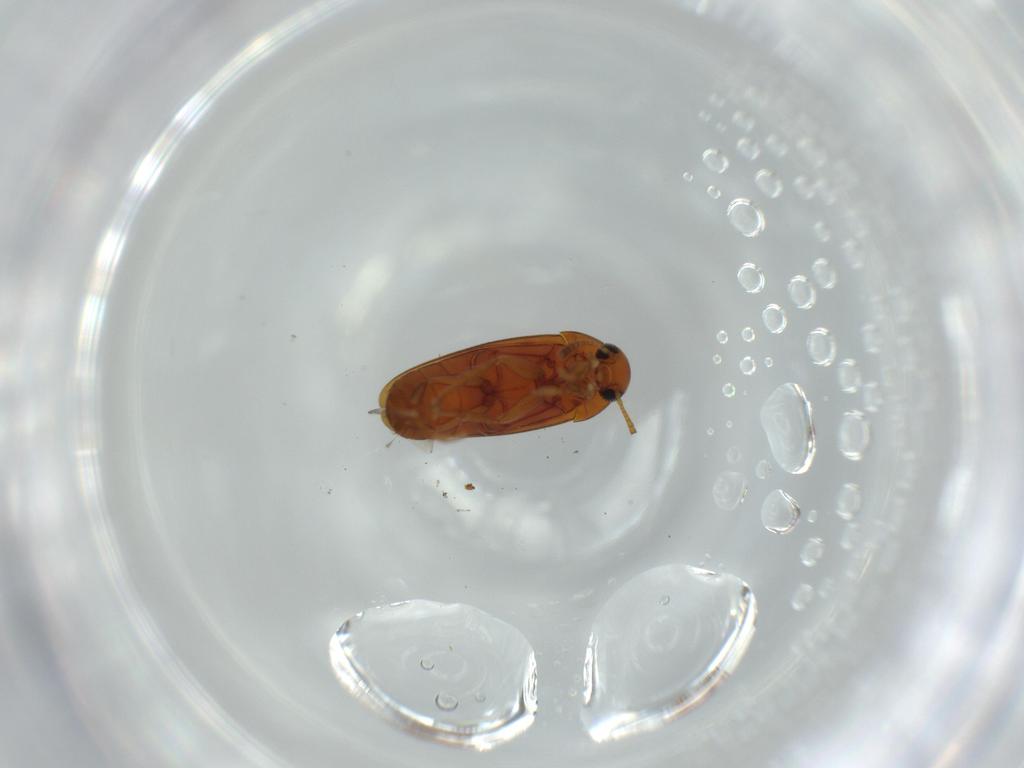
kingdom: Animalia
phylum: Arthropoda
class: Insecta
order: Coleoptera
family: Scraptiidae
